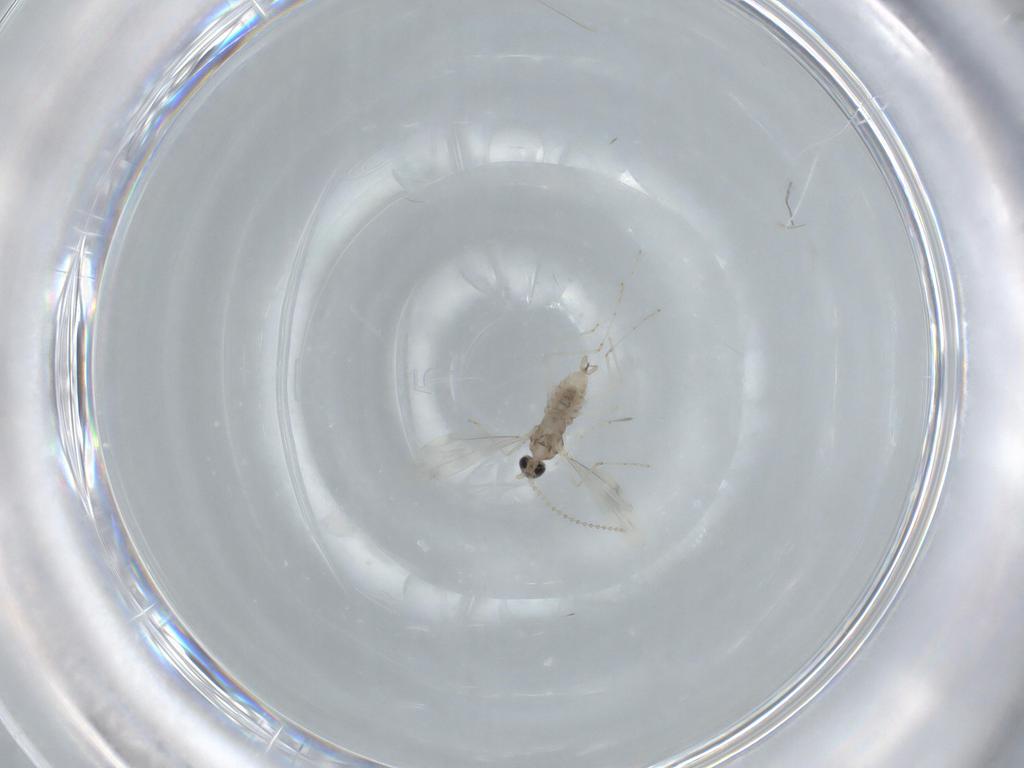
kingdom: Animalia
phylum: Arthropoda
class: Insecta
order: Diptera
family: Cecidomyiidae
